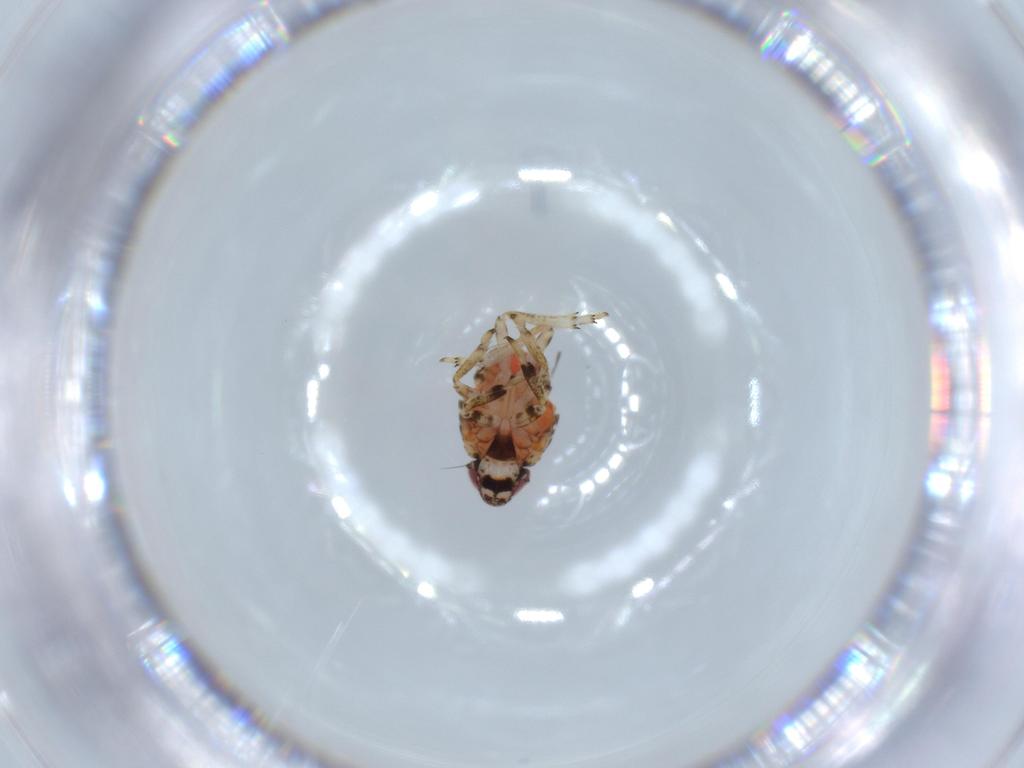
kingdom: Animalia
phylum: Arthropoda
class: Insecta
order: Hemiptera
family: Issidae
